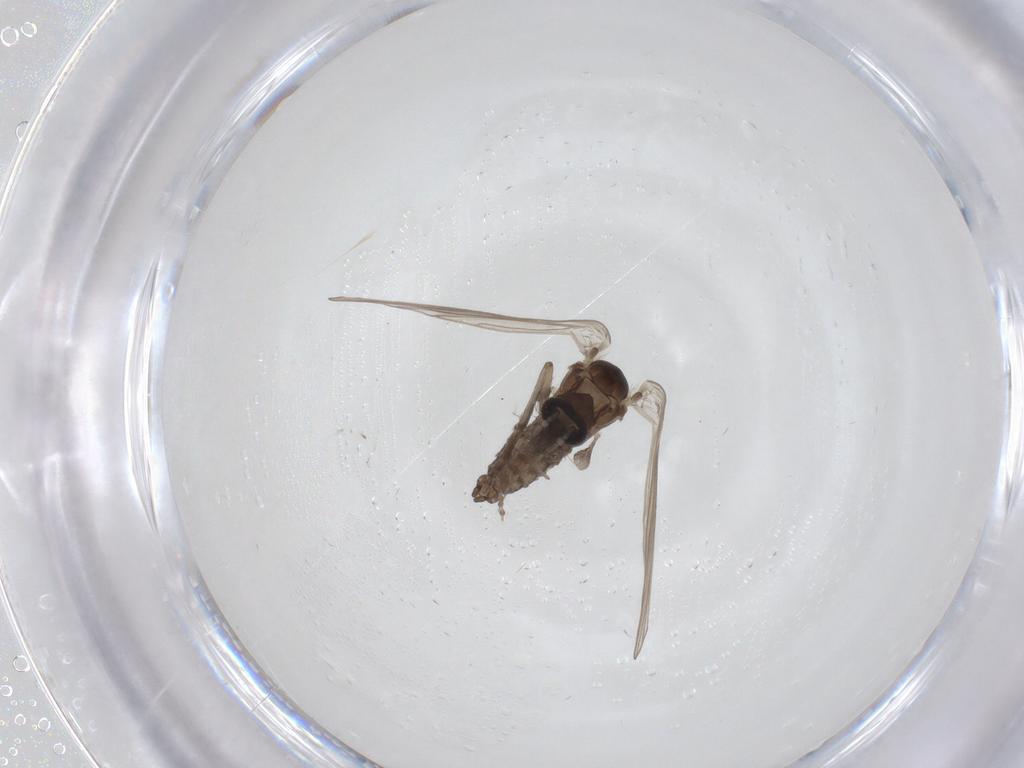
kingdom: Animalia
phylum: Arthropoda
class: Insecta
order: Diptera
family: Psychodidae
